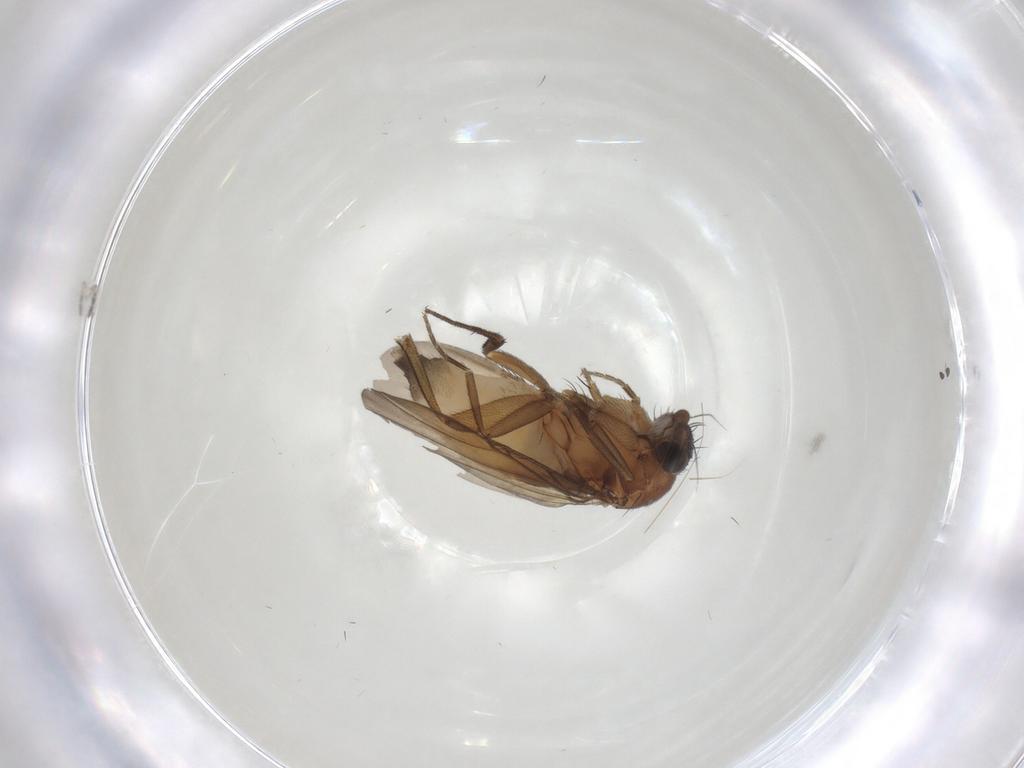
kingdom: Animalia
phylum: Arthropoda
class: Insecta
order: Diptera
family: Phoridae
